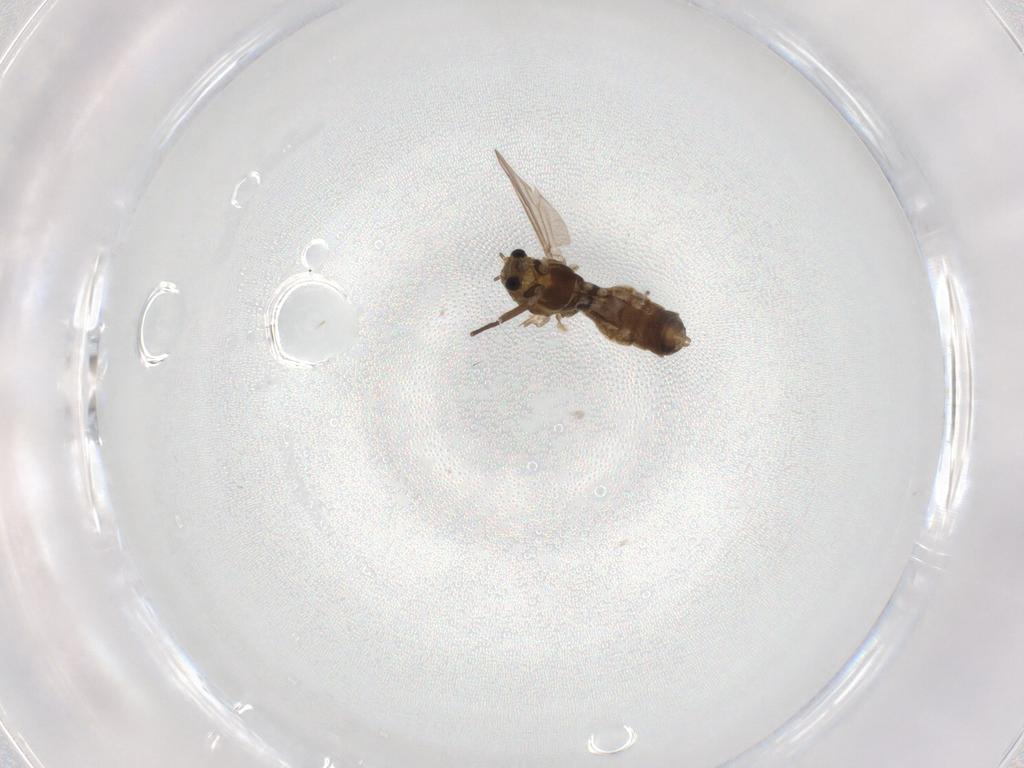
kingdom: Animalia
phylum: Arthropoda
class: Insecta
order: Diptera
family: Chironomidae
